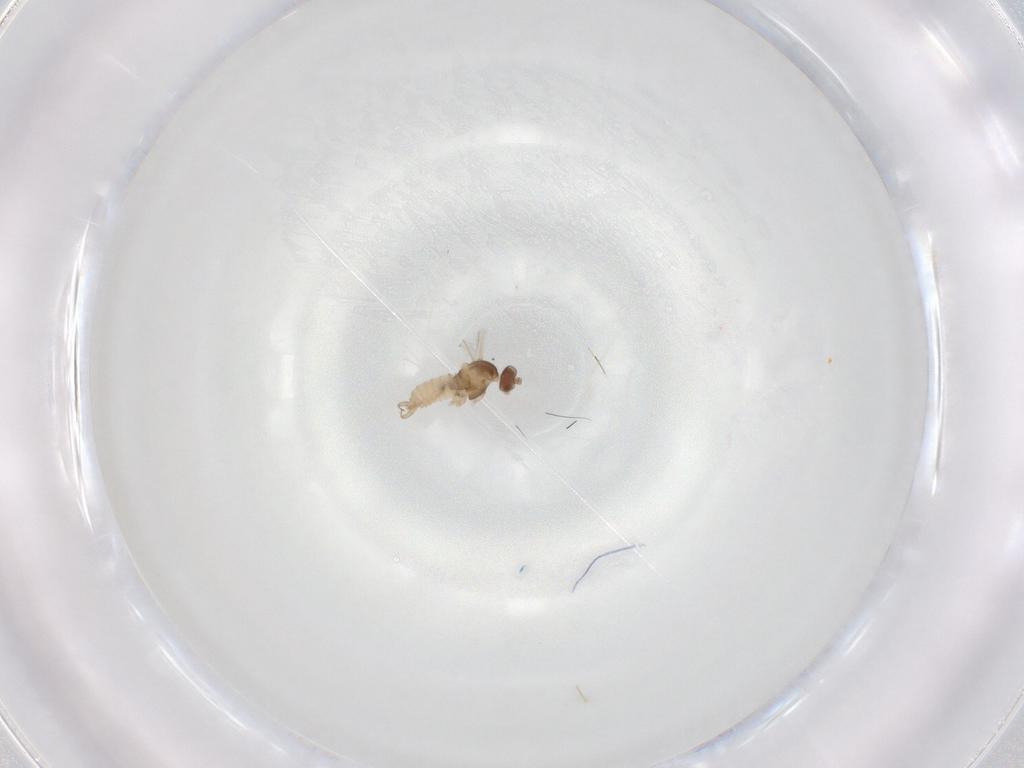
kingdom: Animalia
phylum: Arthropoda
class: Insecta
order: Diptera
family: Cecidomyiidae
